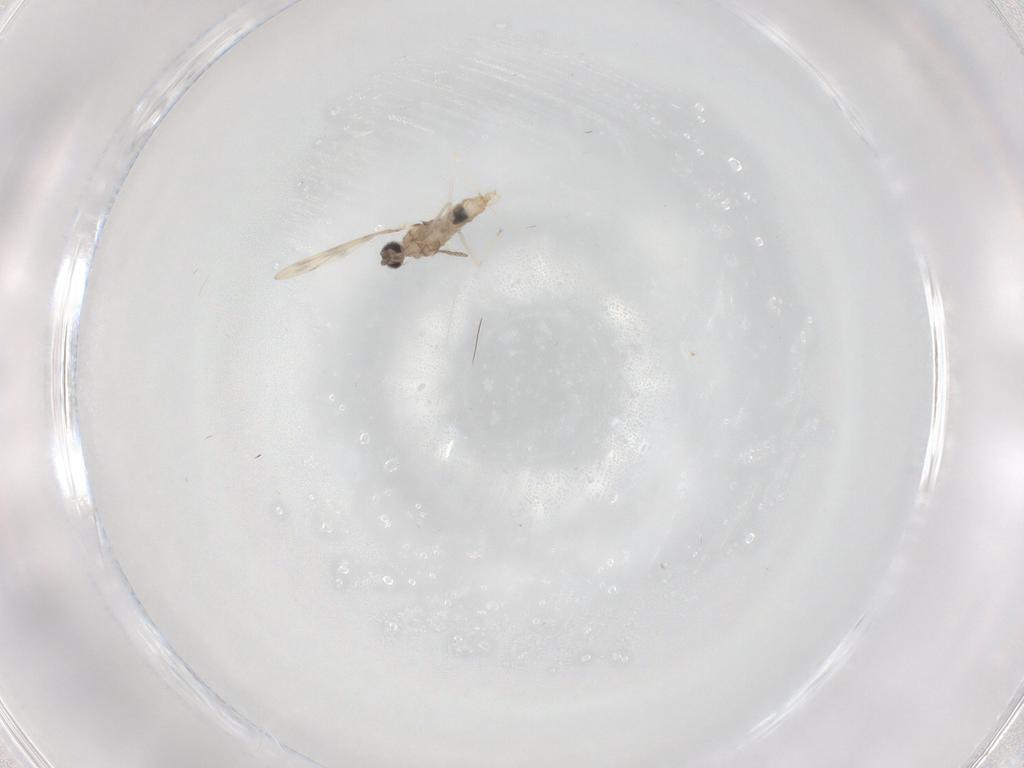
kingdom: Animalia
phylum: Arthropoda
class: Insecta
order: Diptera
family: Cecidomyiidae
